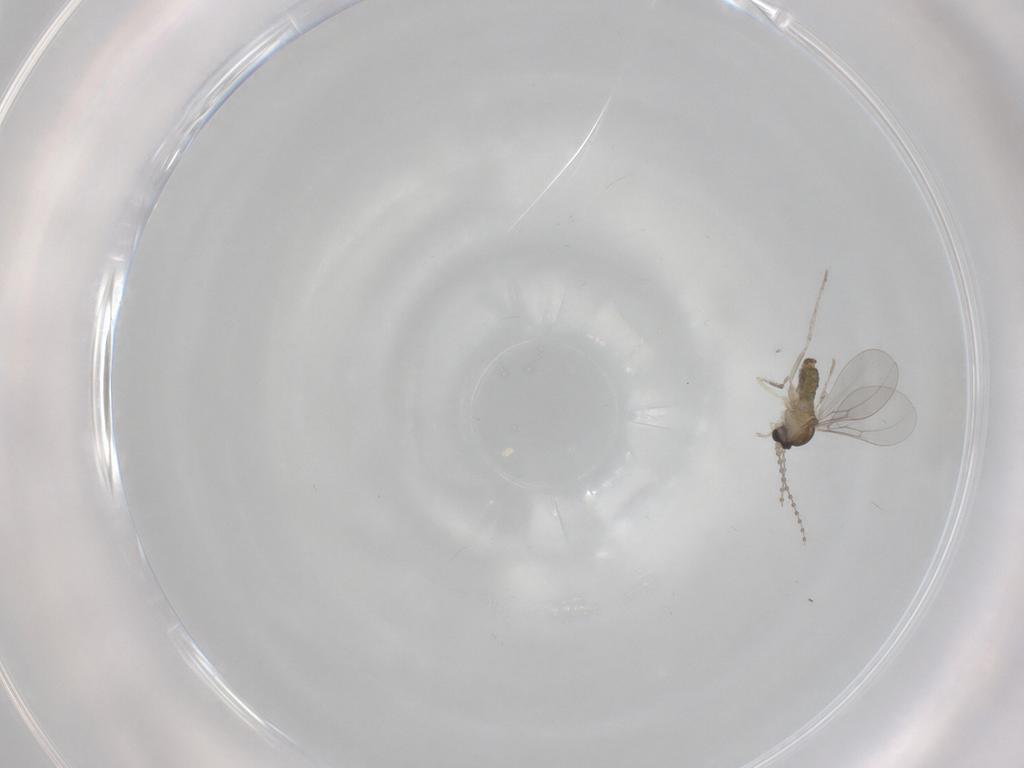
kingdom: Animalia
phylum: Arthropoda
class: Insecta
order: Diptera
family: Cecidomyiidae
